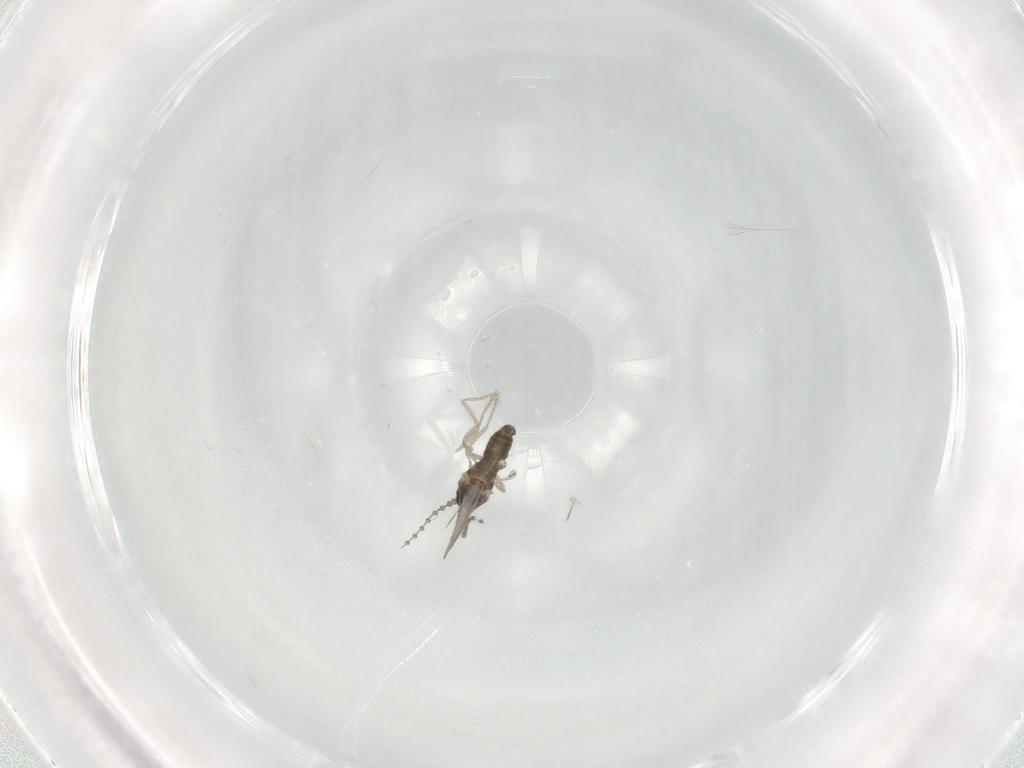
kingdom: Animalia
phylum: Arthropoda
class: Insecta
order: Diptera
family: Cecidomyiidae
